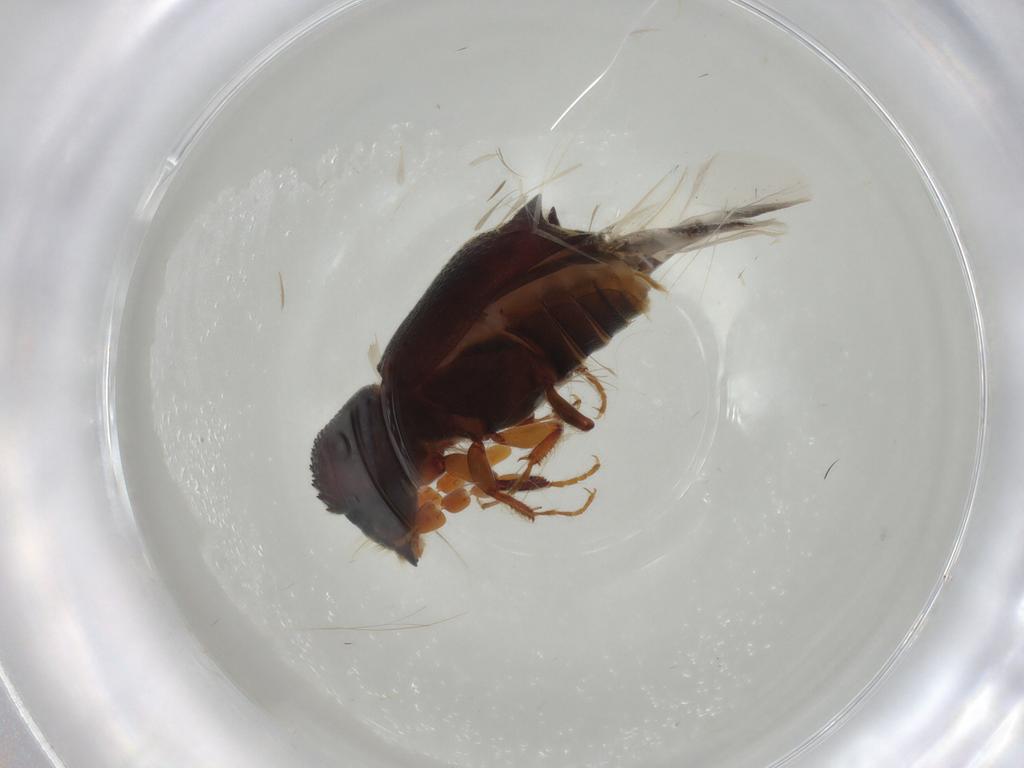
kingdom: Animalia
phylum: Arthropoda
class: Insecta
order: Coleoptera
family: Bostrichidae
